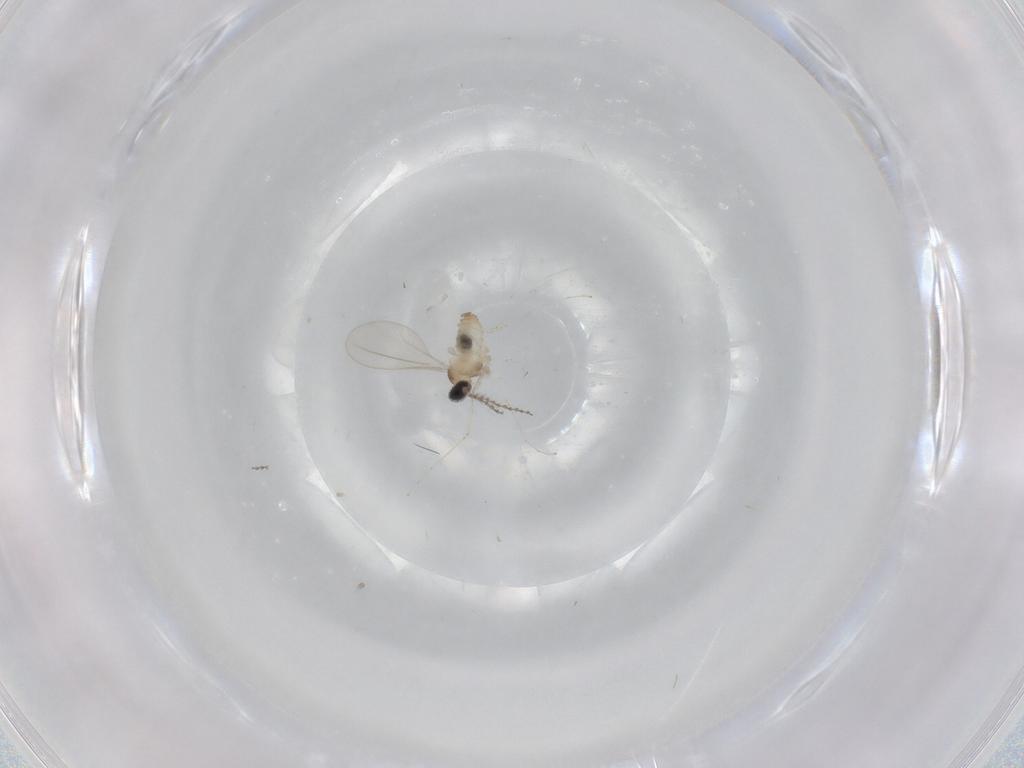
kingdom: Animalia
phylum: Arthropoda
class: Insecta
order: Diptera
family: Cecidomyiidae
